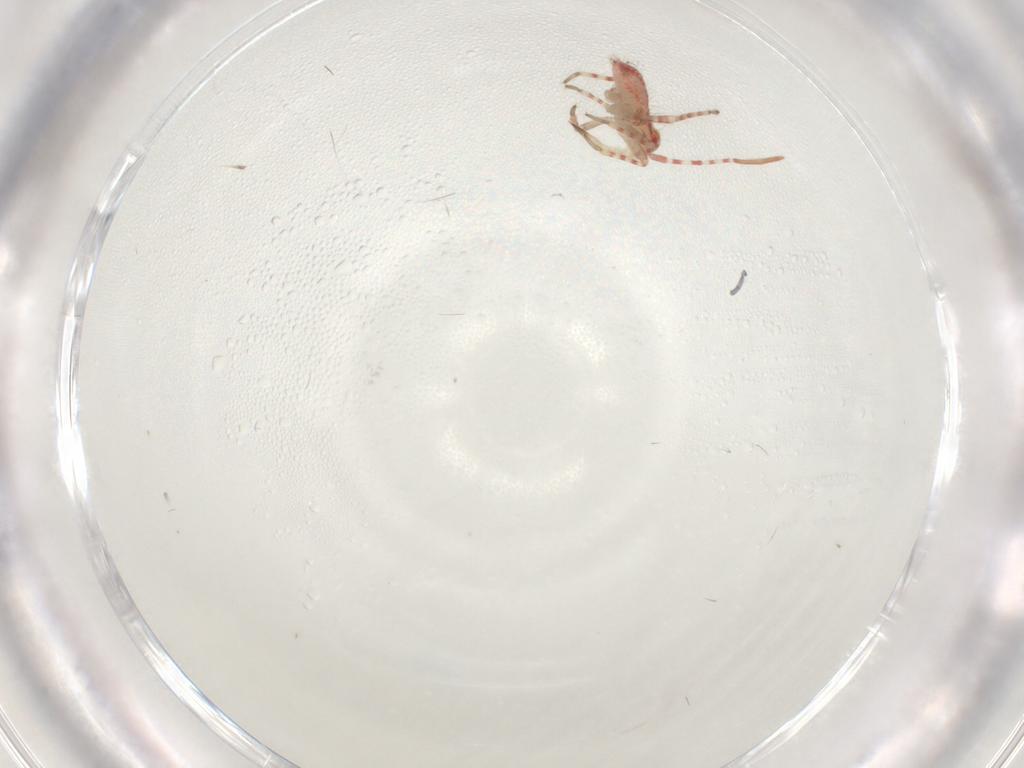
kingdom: Animalia
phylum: Arthropoda
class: Insecta
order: Hemiptera
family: Miridae
